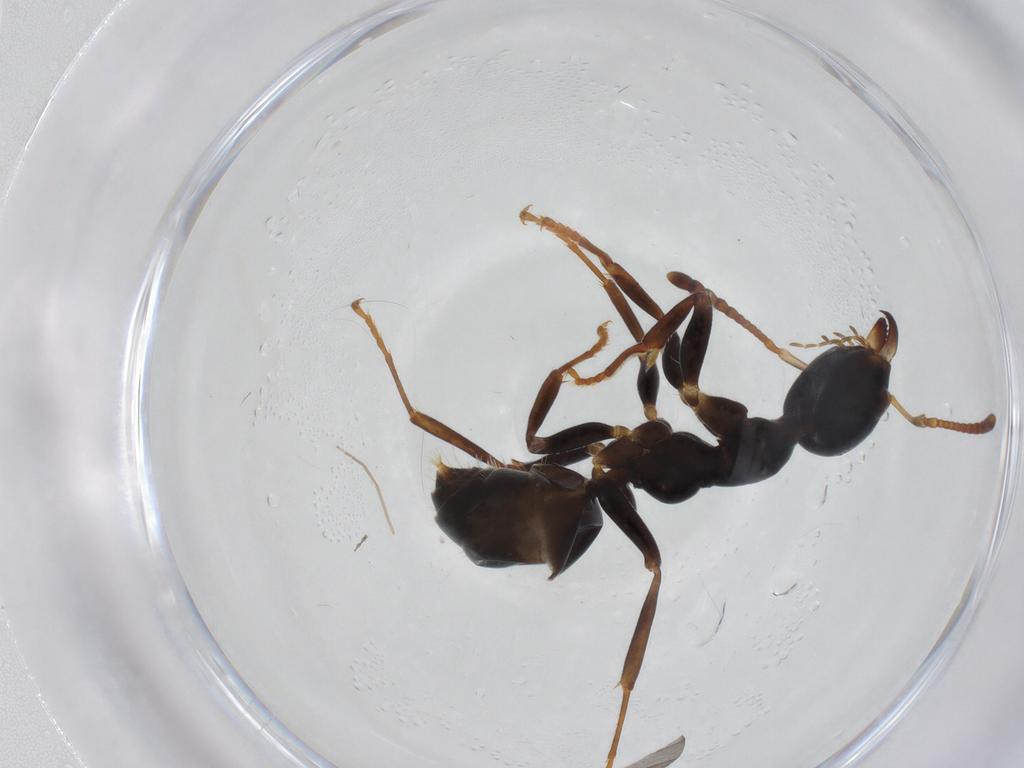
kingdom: Animalia
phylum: Arthropoda
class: Insecta
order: Hymenoptera
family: Formicidae
